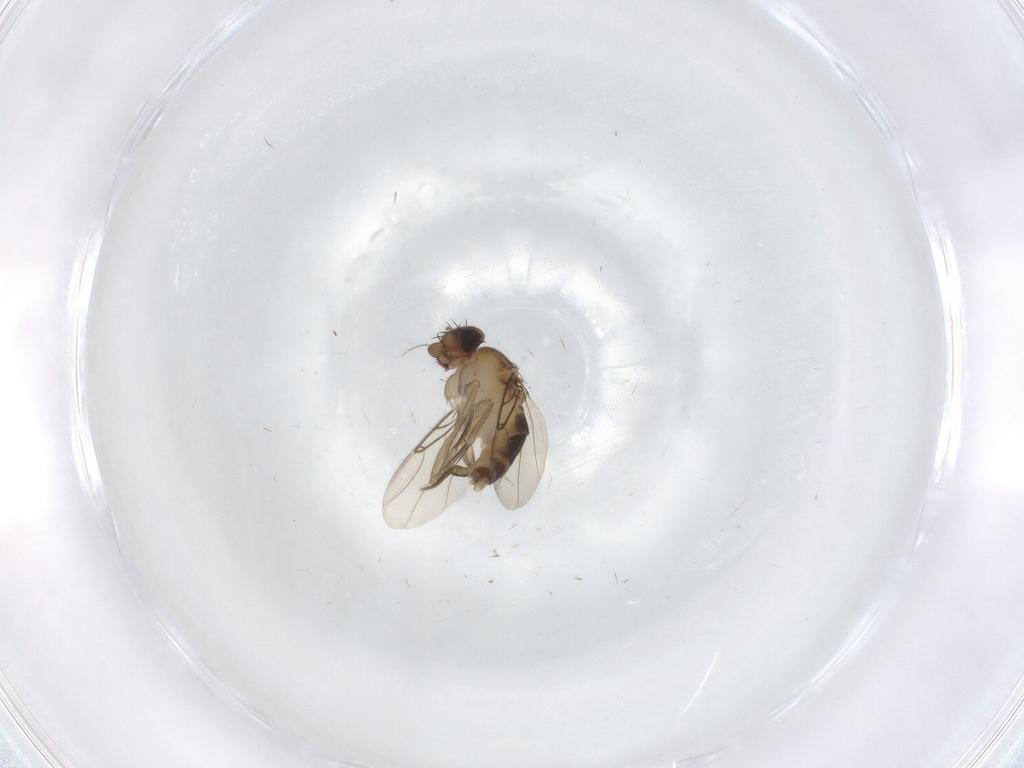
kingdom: Animalia
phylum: Arthropoda
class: Insecta
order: Diptera
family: Phoridae
